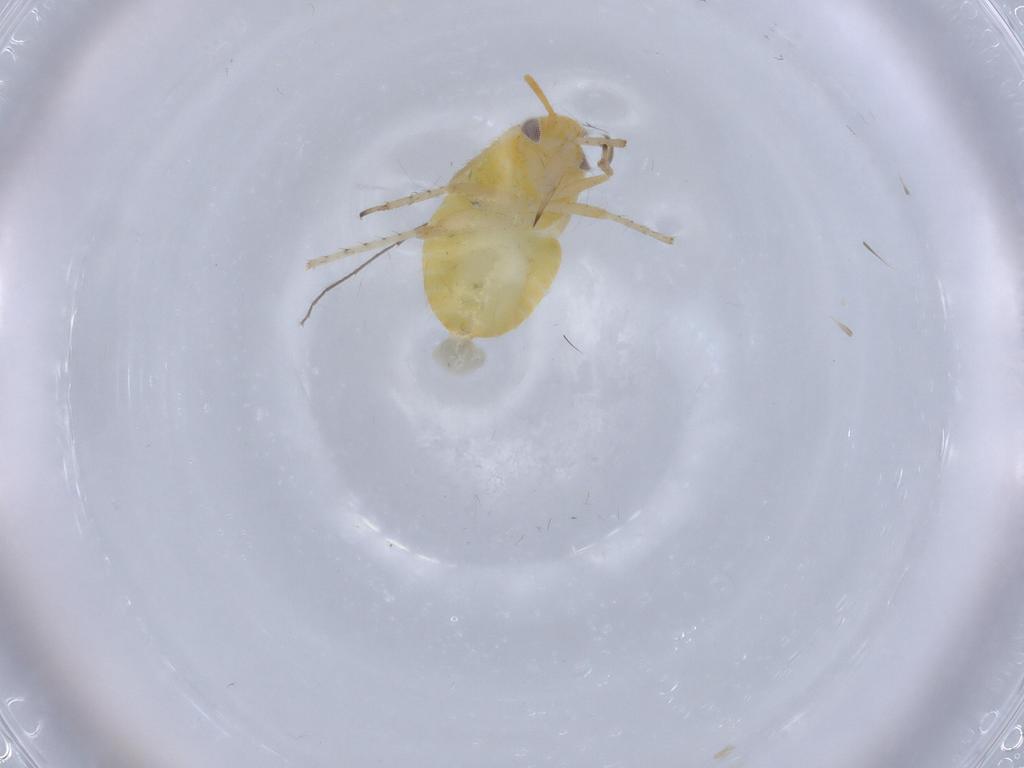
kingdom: Animalia
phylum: Arthropoda
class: Insecta
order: Hemiptera
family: Miridae
